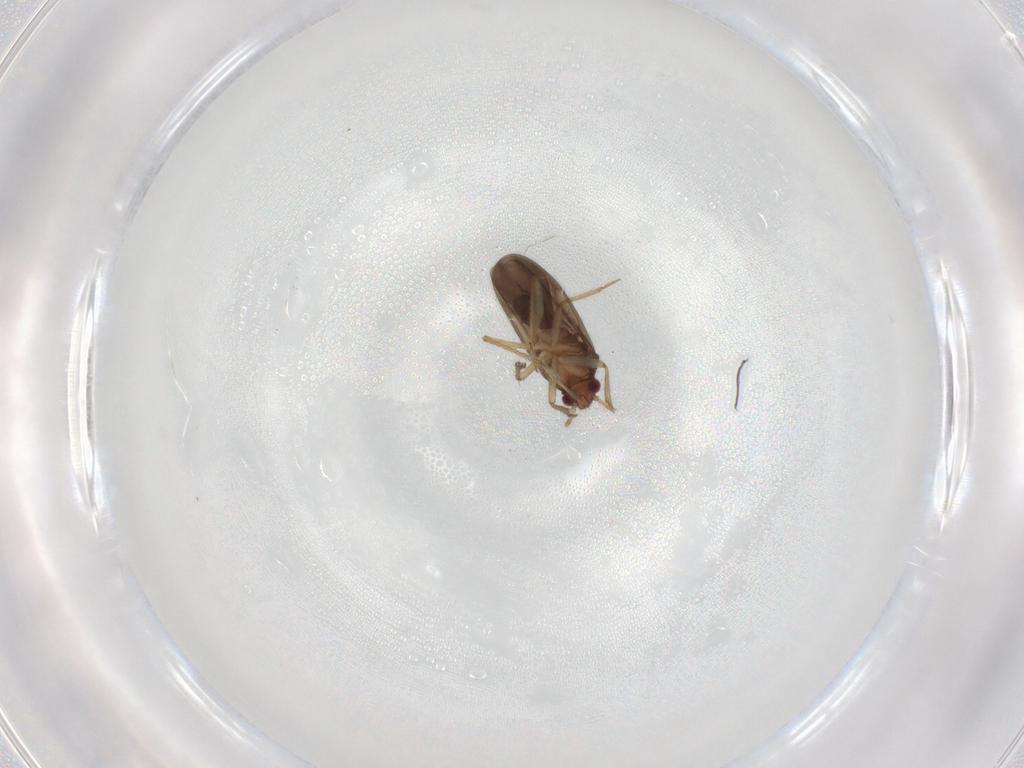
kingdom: Animalia
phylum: Arthropoda
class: Insecta
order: Hemiptera
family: Ceratocombidae
